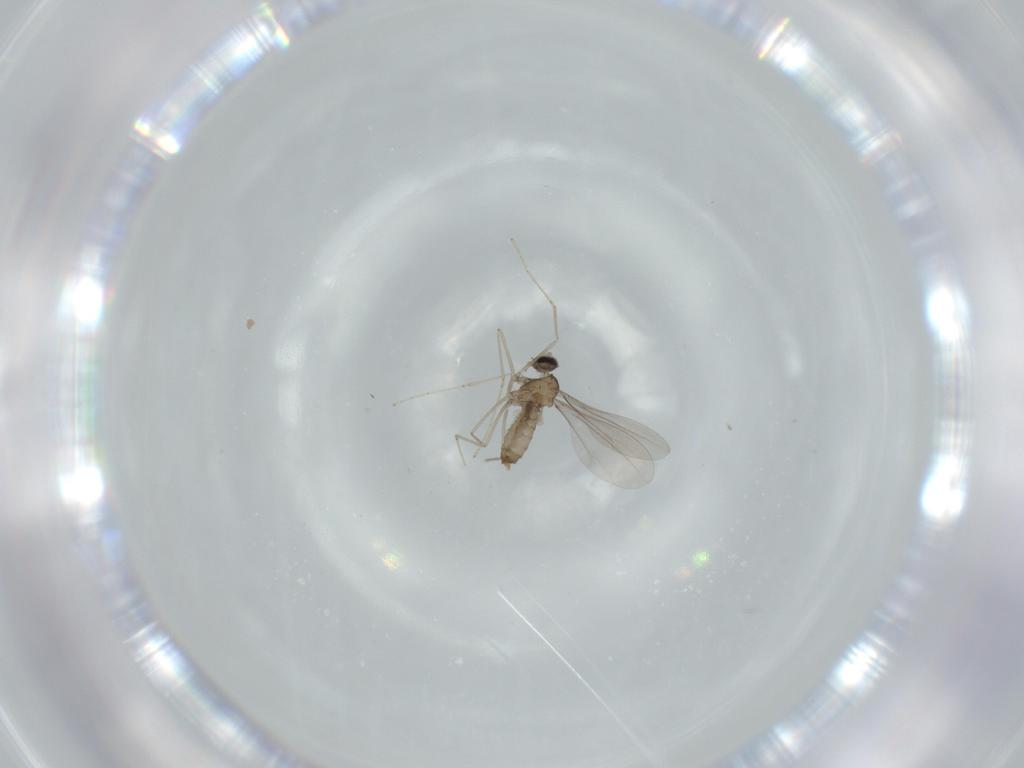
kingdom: Animalia
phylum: Arthropoda
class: Insecta
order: Diptera
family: Cecidomyiidae
